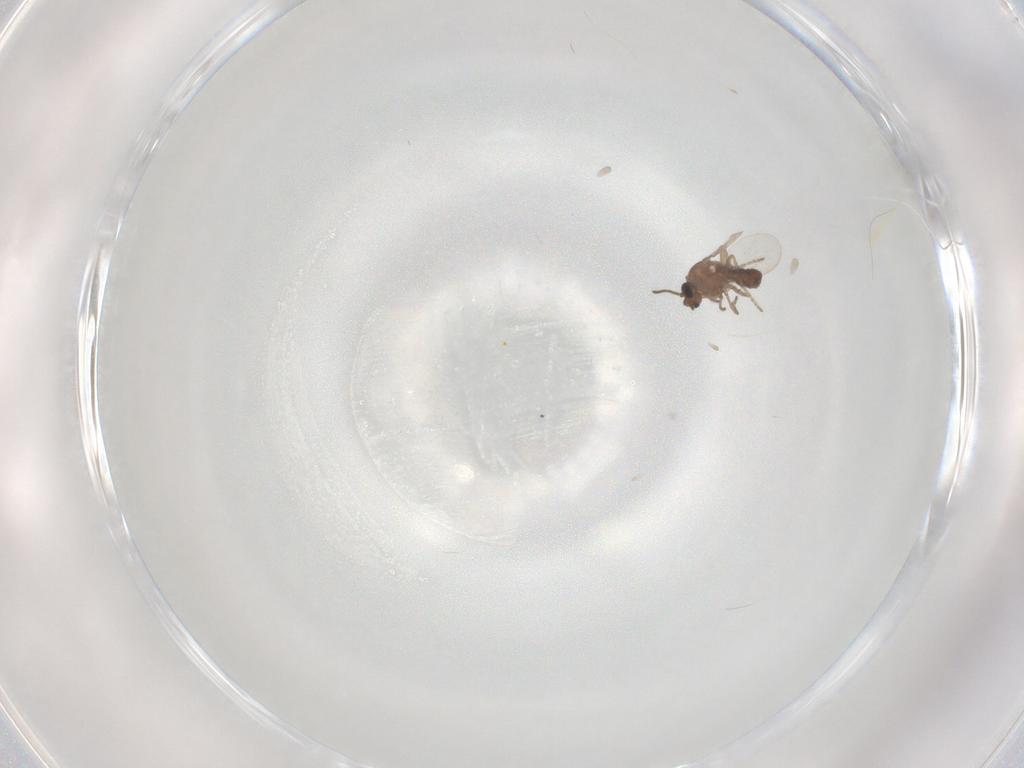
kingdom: Animalia
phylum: Arthropoda
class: Insecta
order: Diptera
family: Ceratopogonidae
